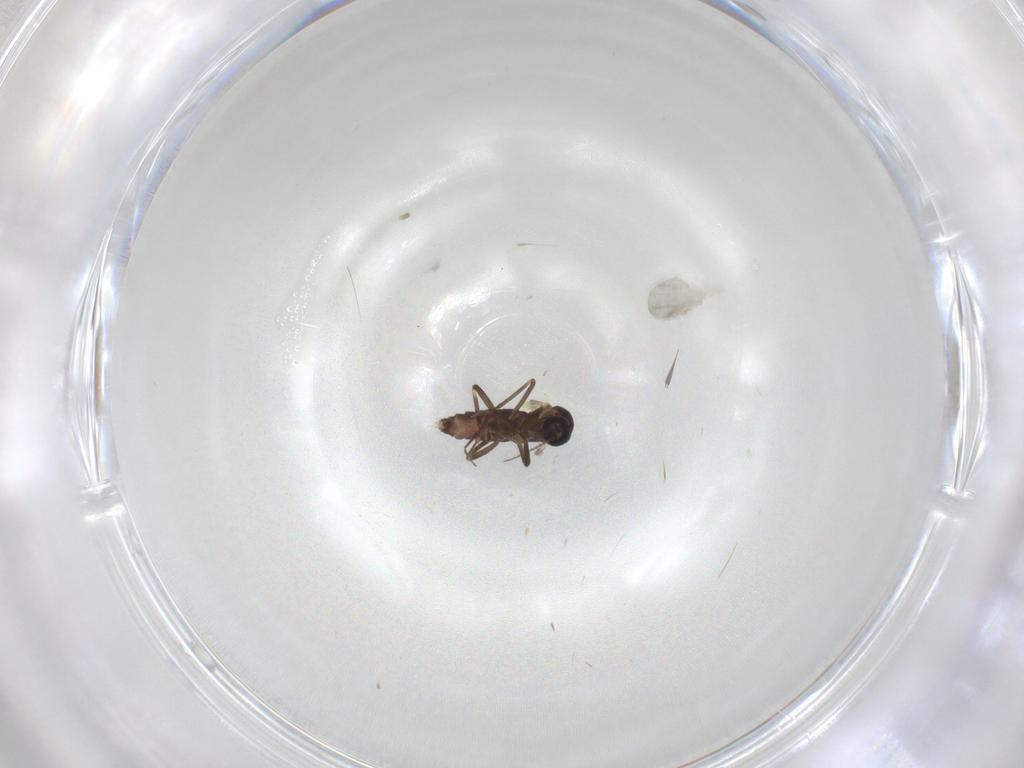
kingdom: Animalia
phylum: Arthropoda
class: Insecta
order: Diptera
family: Ceratopogonidae
